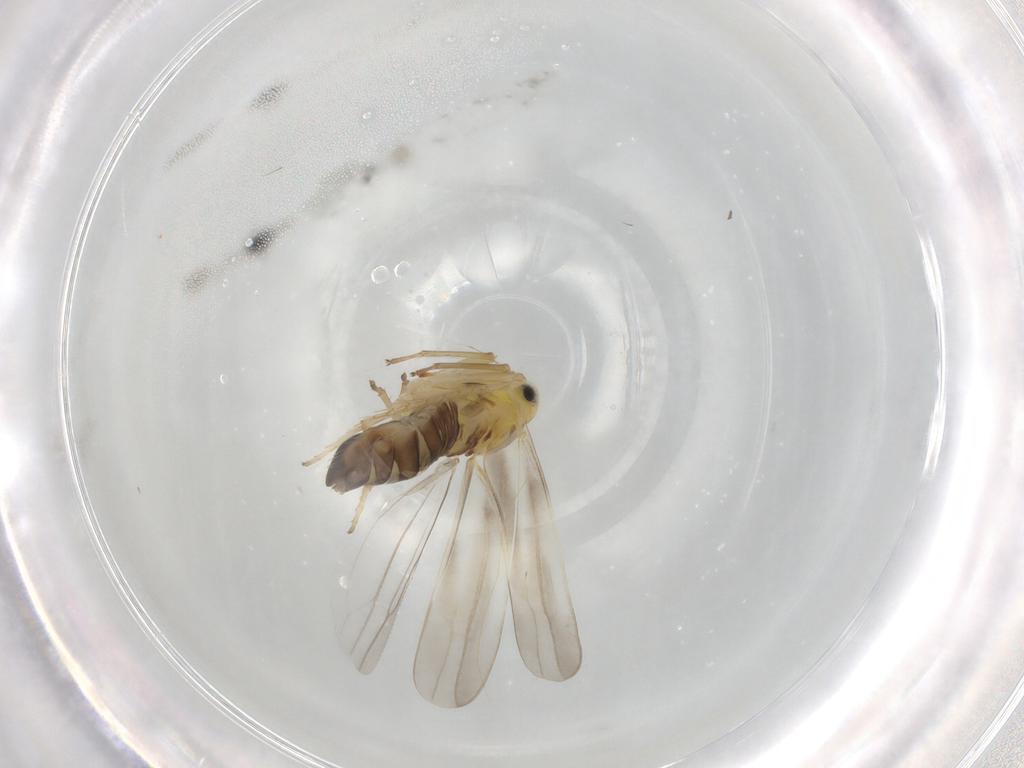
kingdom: Animalia
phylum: Arthropoda
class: Insecta
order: Hemiptera
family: Cicadellidae
